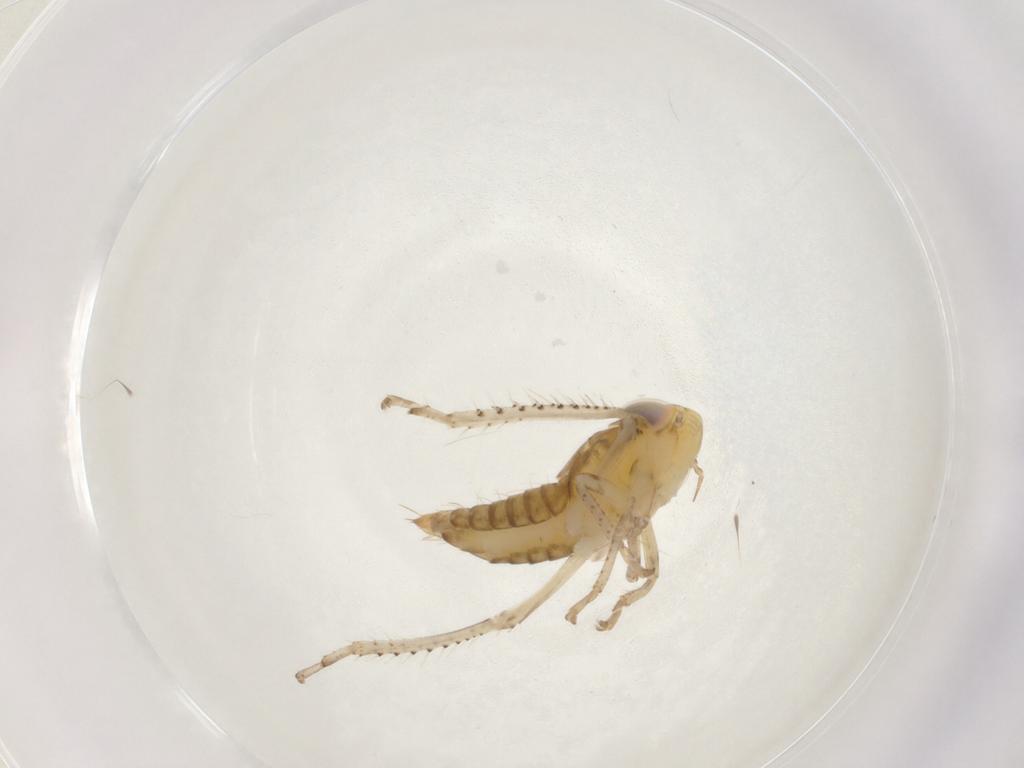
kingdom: Animalia
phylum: Arthropoda
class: Insecta
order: Hemiptera
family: Cicadellidae
